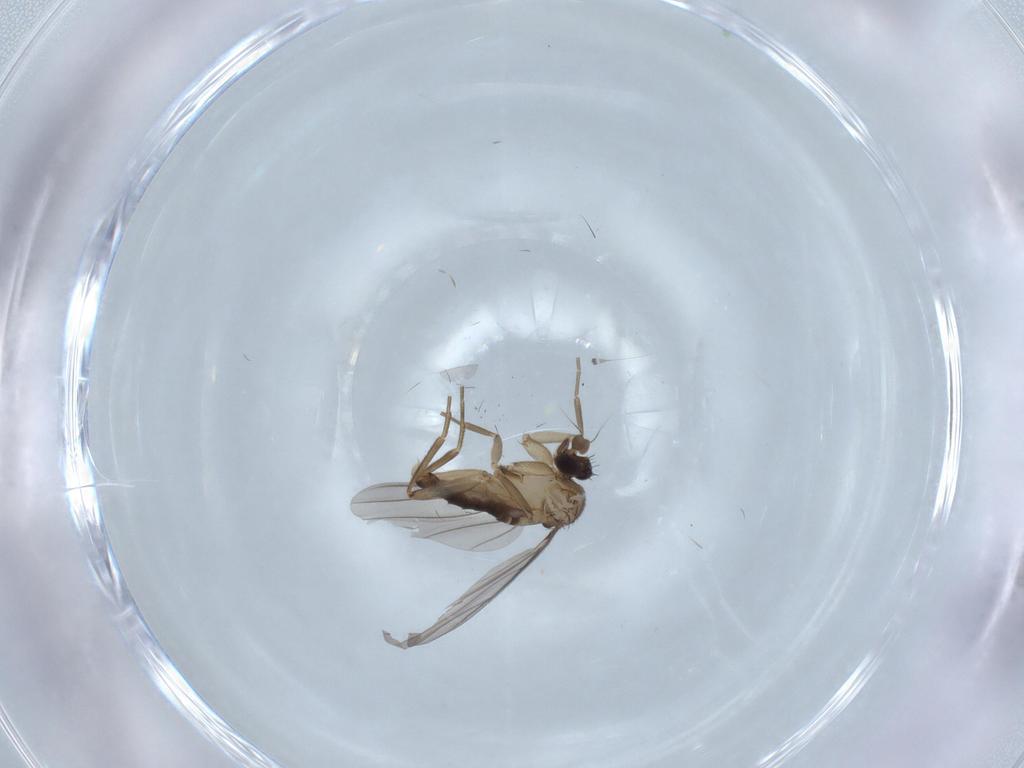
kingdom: Animalia
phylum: Arthropoda
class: Insecta
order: Diptera
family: Phoridae
